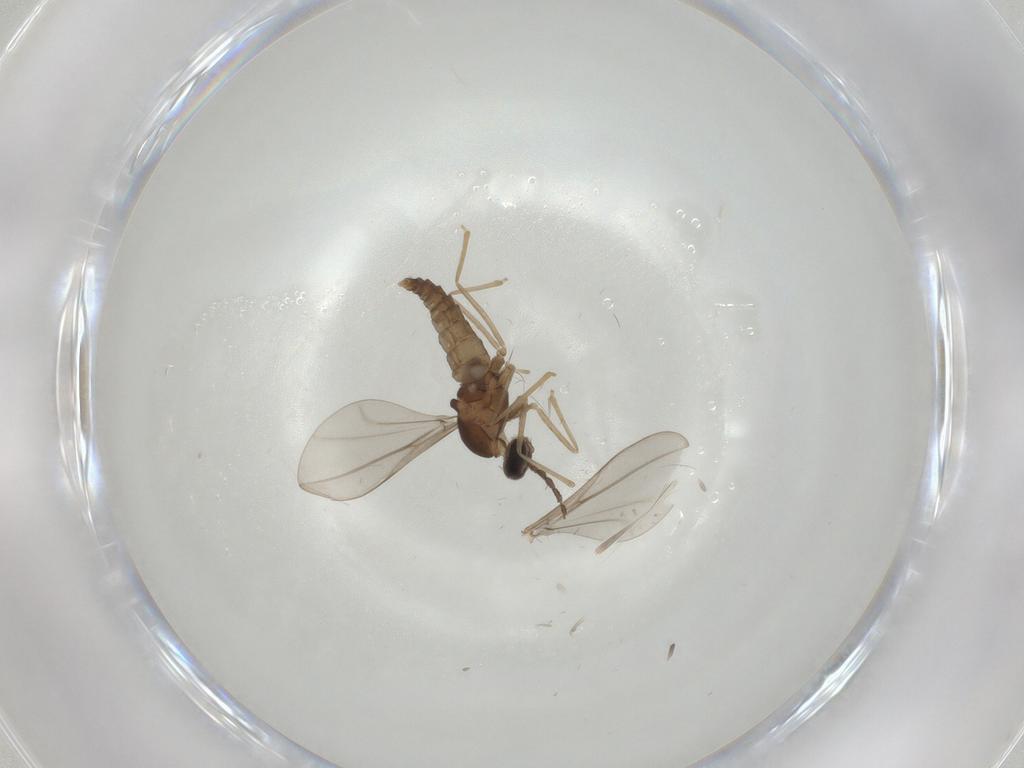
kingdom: Animalia
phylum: Arthropoda
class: Insecta
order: Diptera
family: Cecidomyiidae
